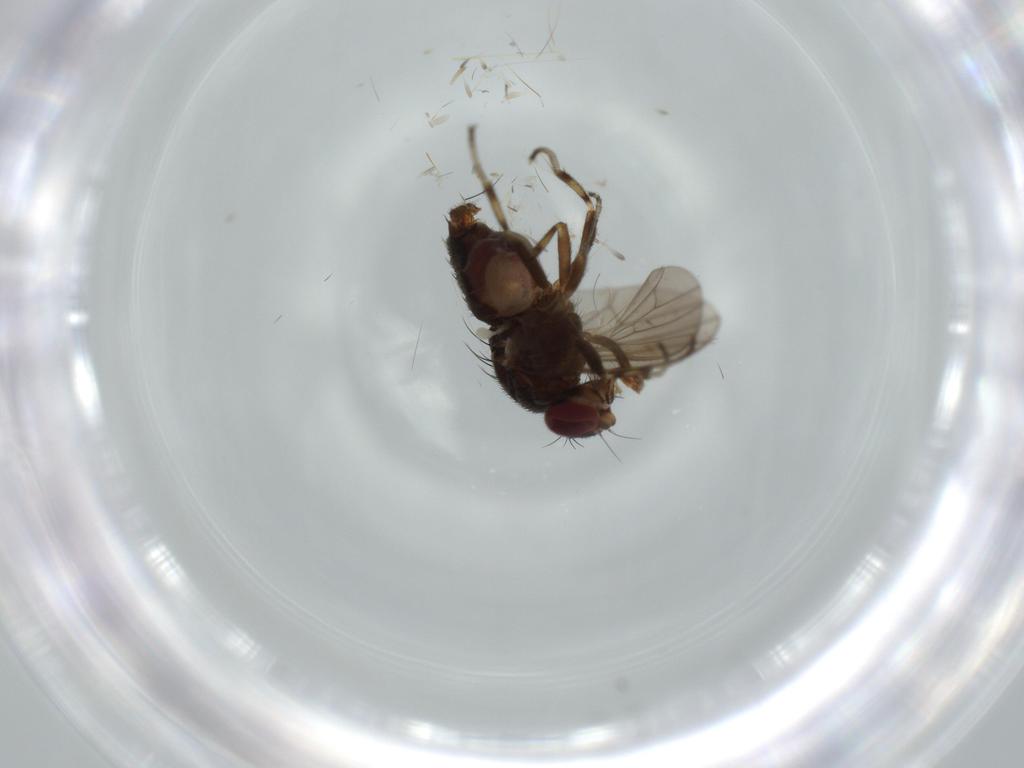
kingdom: Animalia
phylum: Arthropoda
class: Insecta
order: Diptera
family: Heleomyzidae
